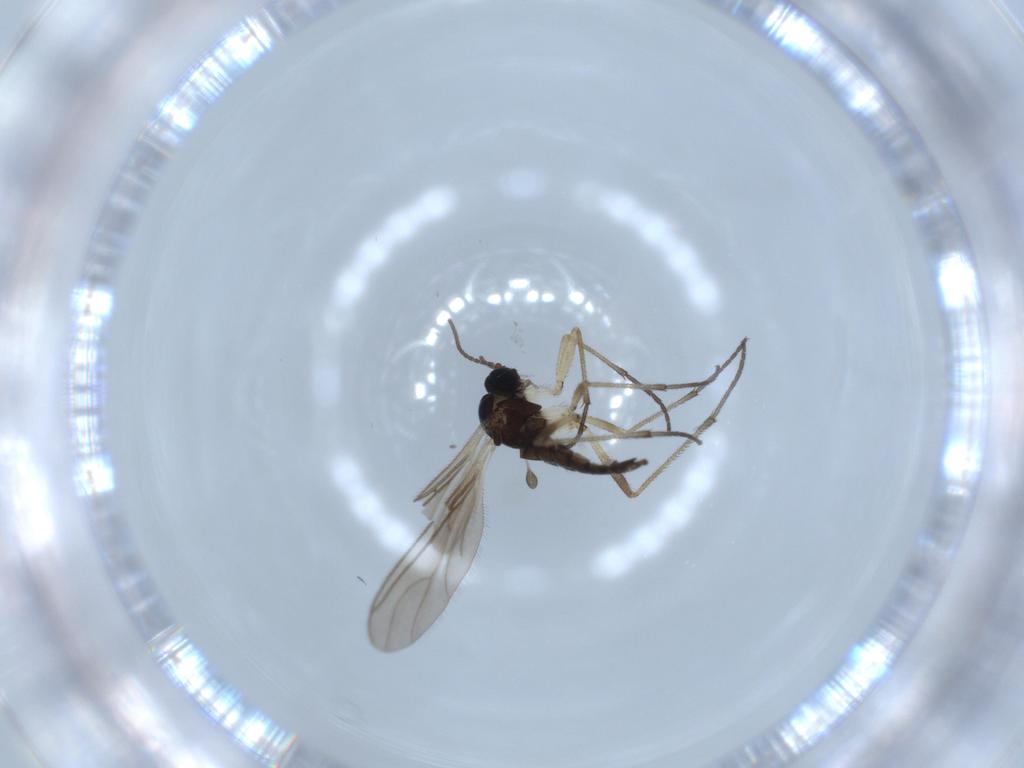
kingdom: Animalia
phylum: Arthropoda
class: Insecta
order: Diptera
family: Sciaridae
